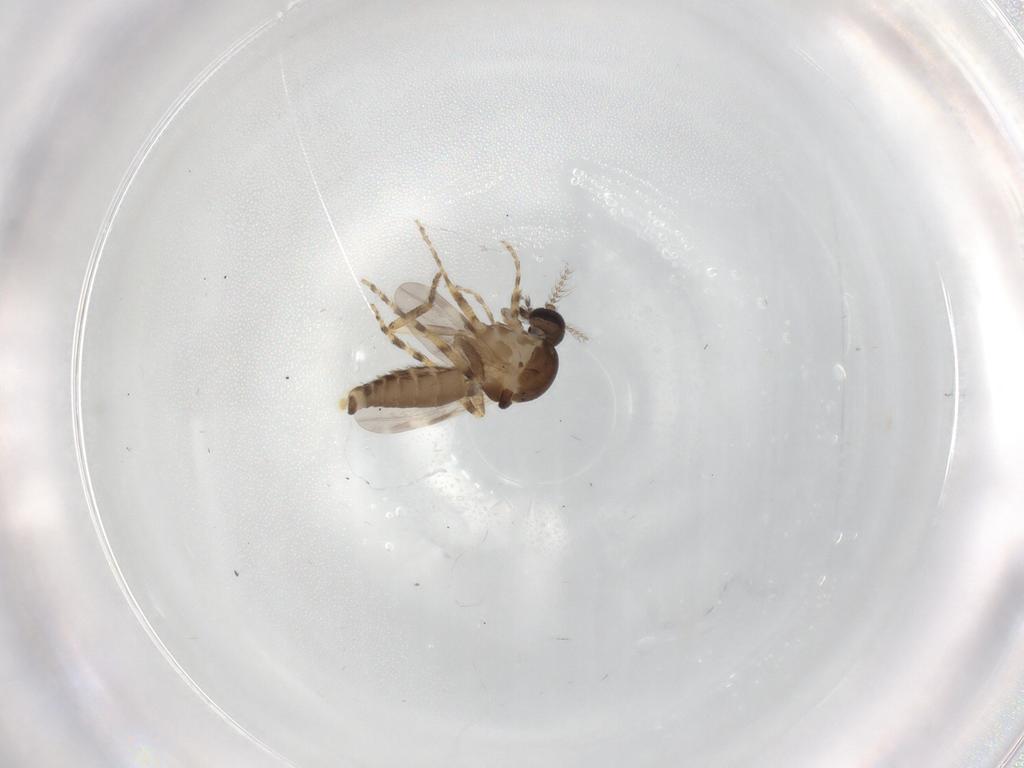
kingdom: Animalia
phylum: Arthropoda
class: Insecta
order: Diptera
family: Ceratopogonidae
